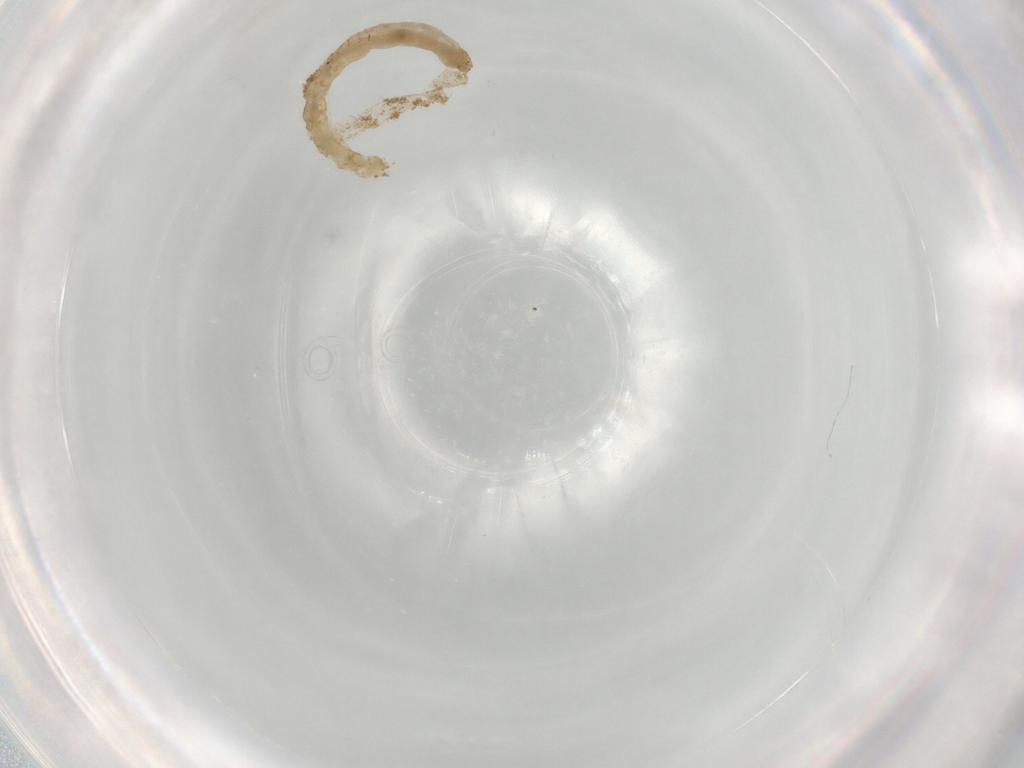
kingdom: Animalia
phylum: Arthropoda
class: Insecta
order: Diptera
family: Chironomidae
